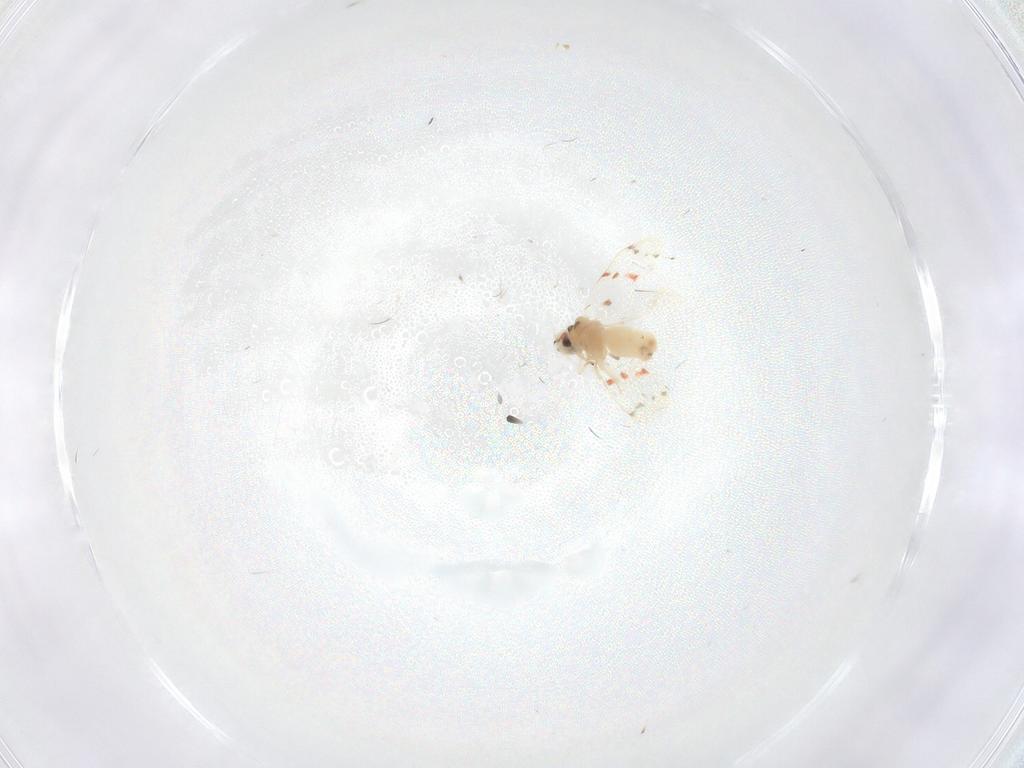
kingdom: Animalia
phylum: Arthropoda
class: Insecta
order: Hemiptera
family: Aleyrodidae
